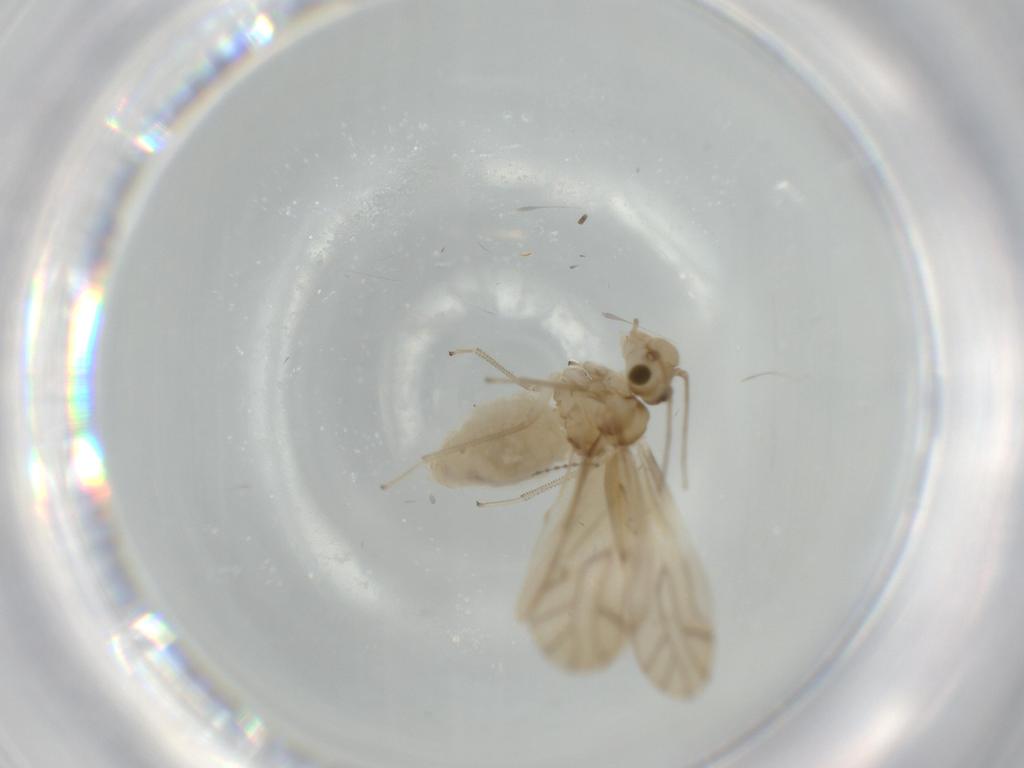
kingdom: Animalia
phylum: Arthropoda
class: Insecta
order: Psocodea
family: Caeciliusidae
